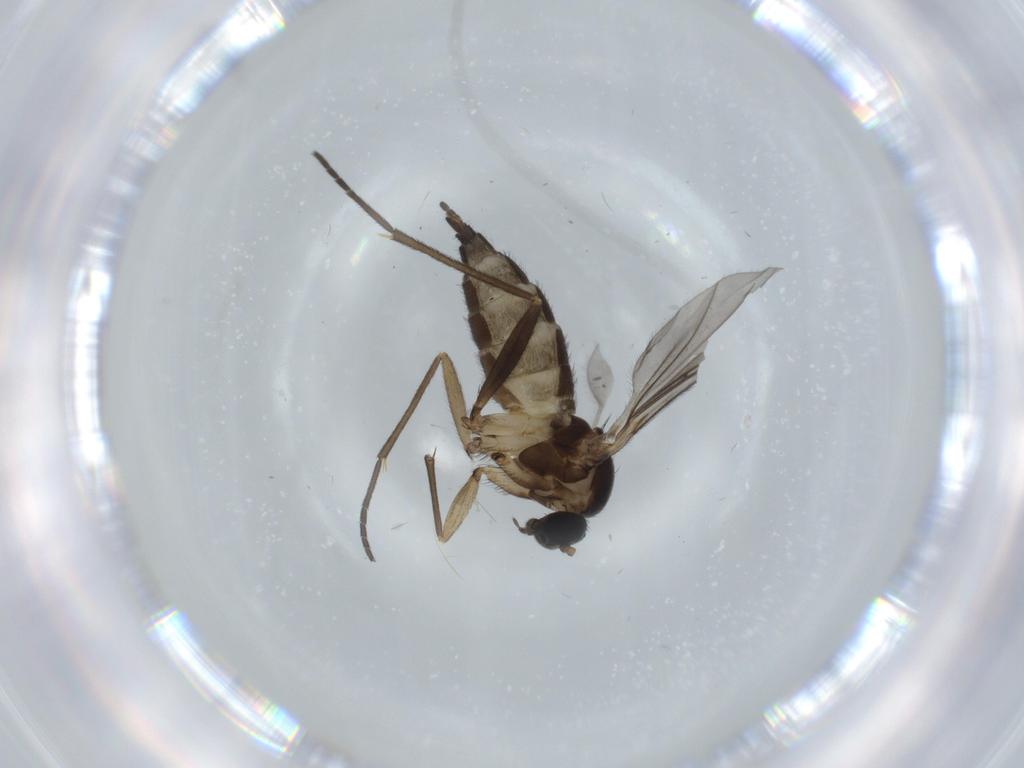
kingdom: Animalia
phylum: Arthropoda
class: Insecta
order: Diptera
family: Sciaridae
